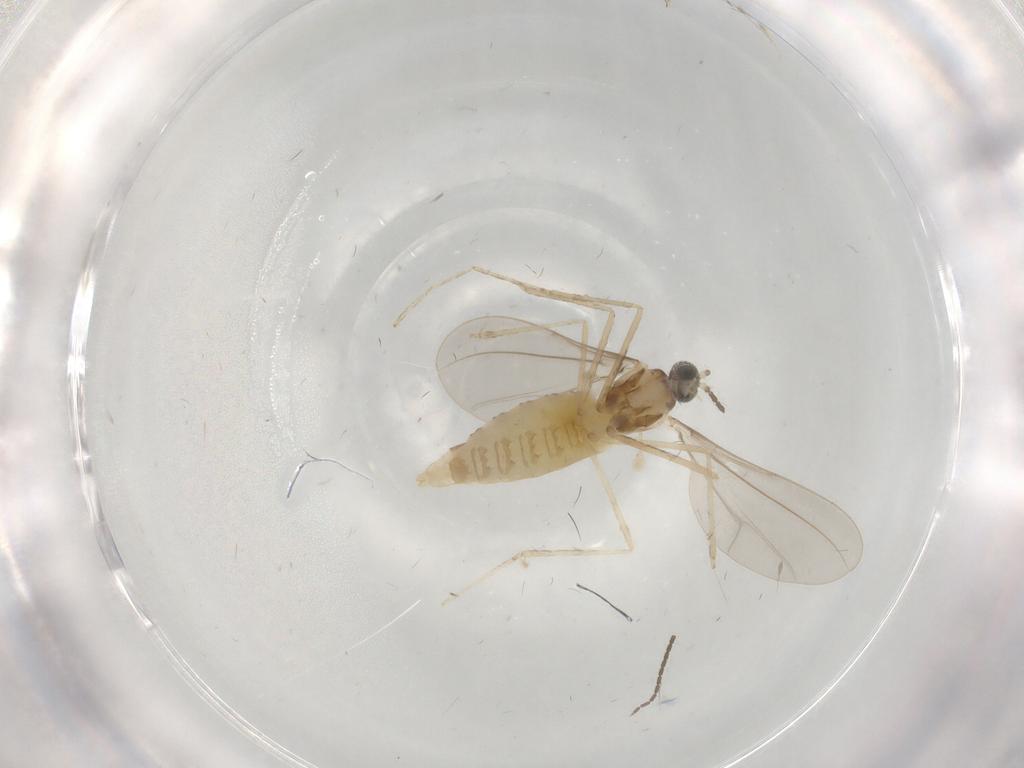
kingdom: Animalia
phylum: Arthropoda
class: Insecta
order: Diptera
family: Cecidomyiidae
